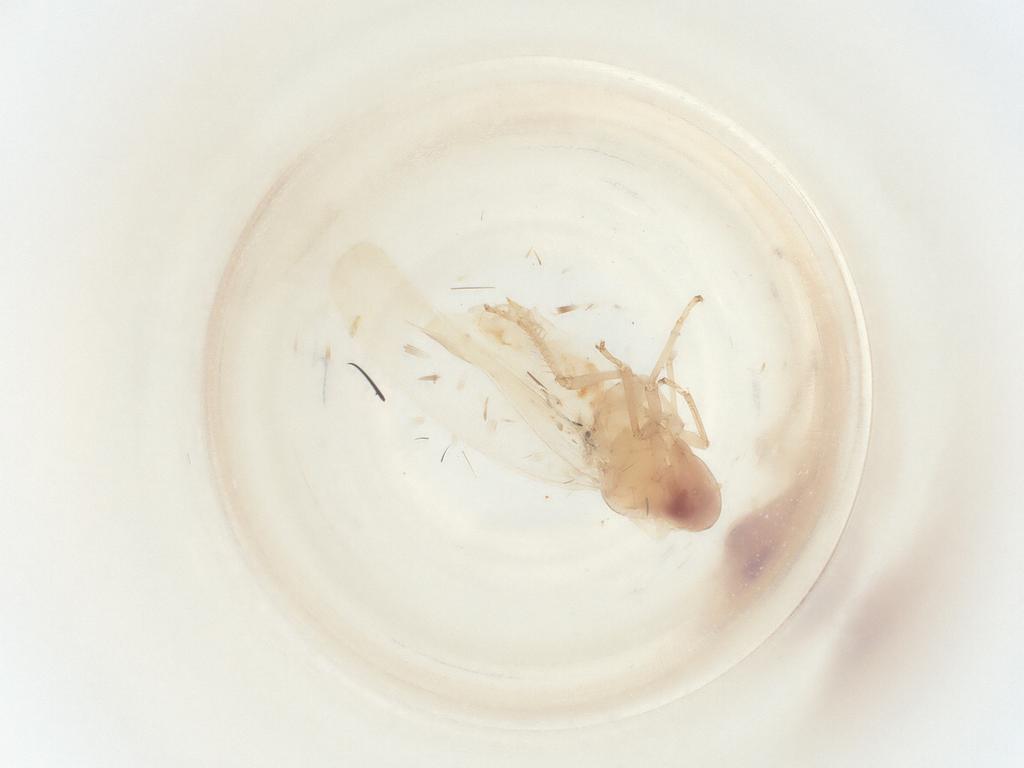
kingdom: Animalia
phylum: Arthropoda
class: Insecta
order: Hemiptera
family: Cicadellidae
